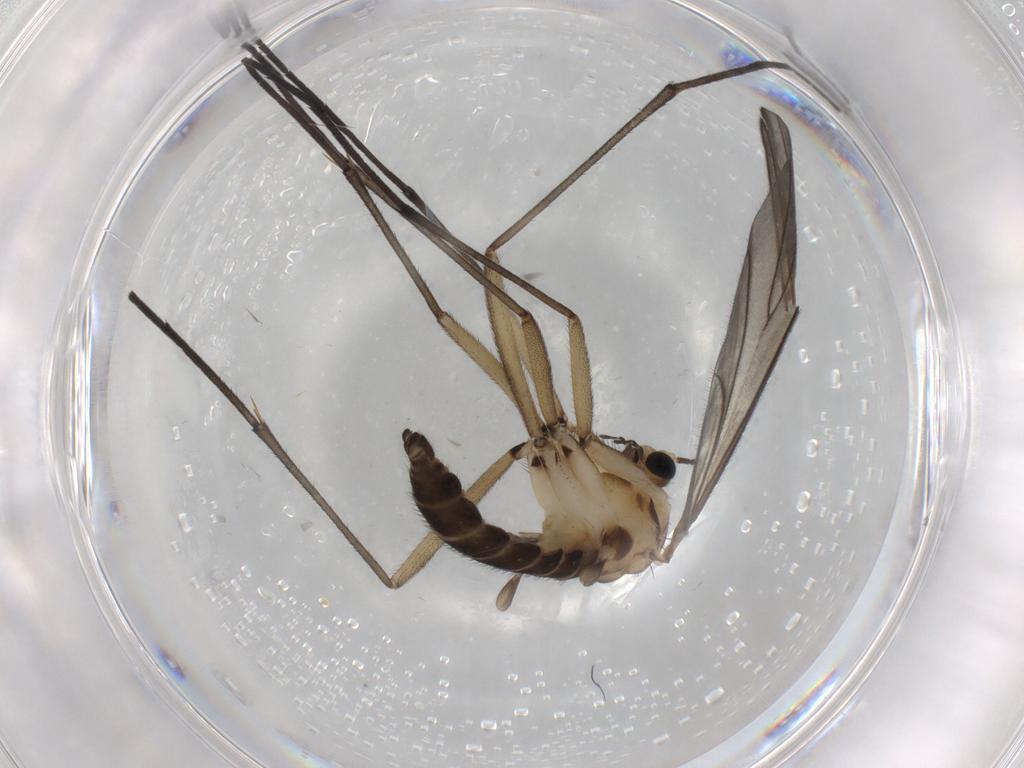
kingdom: Animalia
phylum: Arthropoda
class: Insecta
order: Diptera
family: Sciaridae
